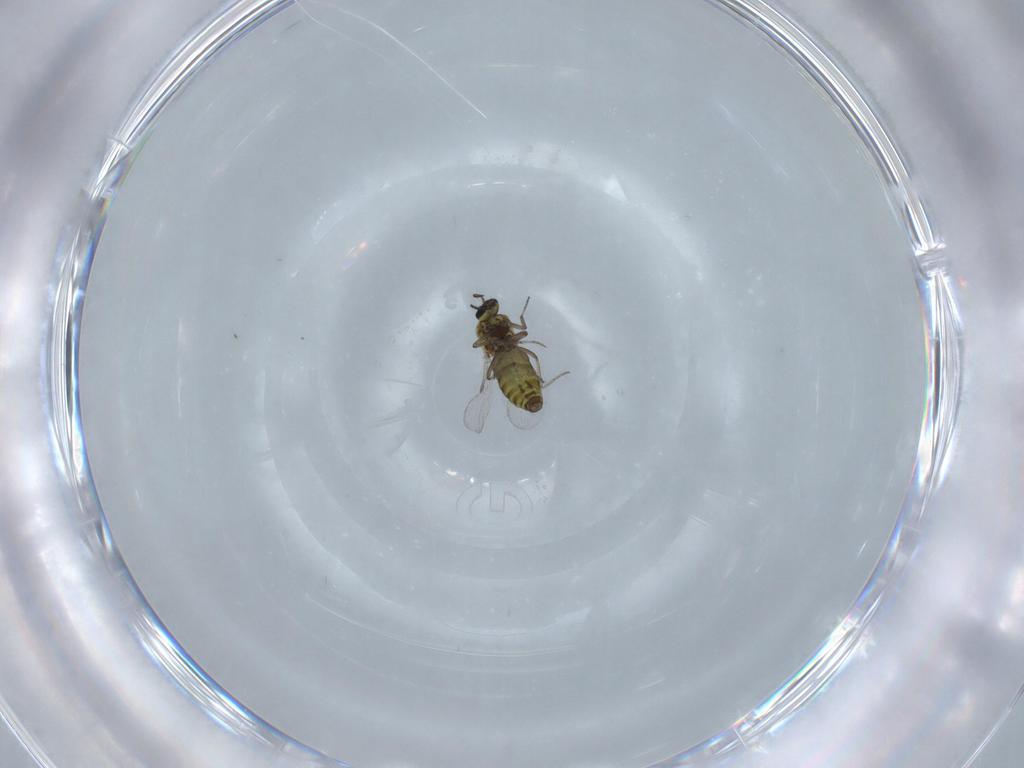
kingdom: Animalia
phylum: Arthropoda
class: Insecta
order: Diptera
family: Ceratopogonidae
